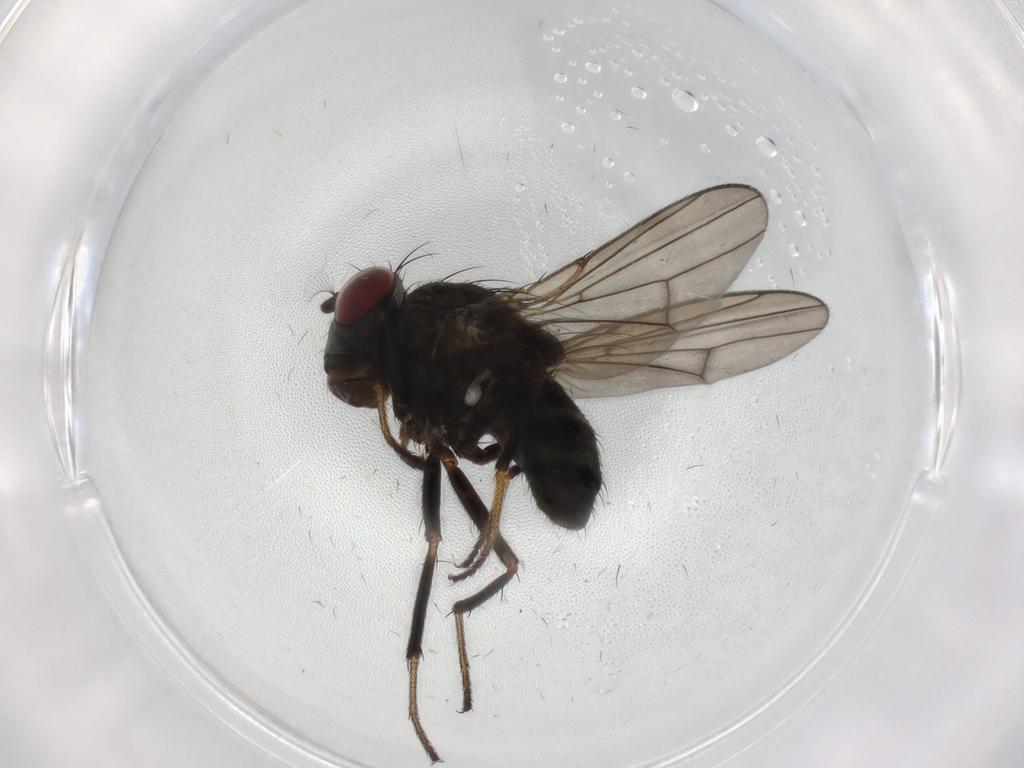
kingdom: Animalia
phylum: Arthropoda
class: Insecta
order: Diptera
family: Ephydridae
